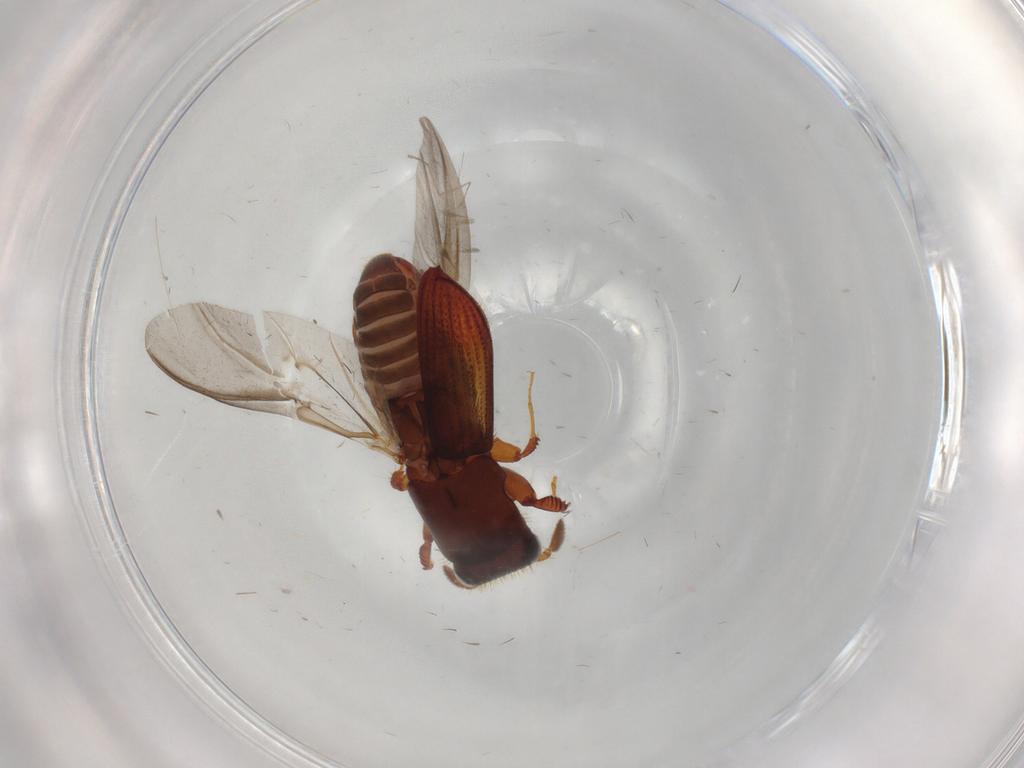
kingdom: Animalia
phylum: Arthropoda
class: Insecta
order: Coleoptera
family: Curculionidae
